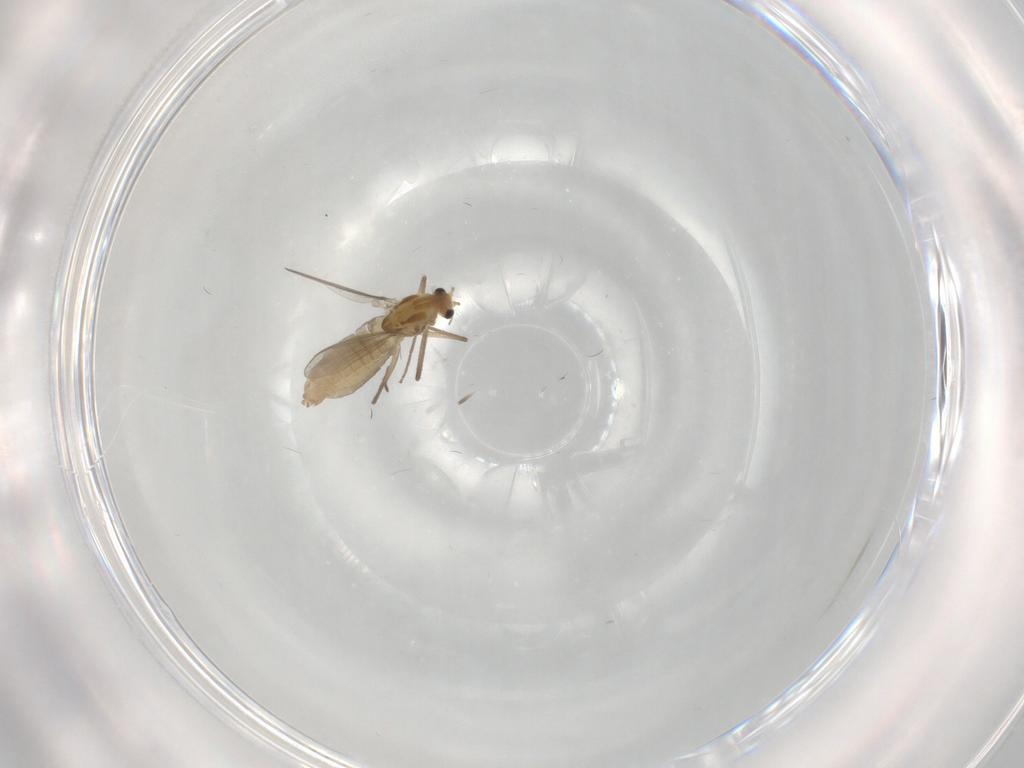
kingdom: Animalia
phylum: Arthropoda
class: Insecta
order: Diptera
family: Chironomidae
